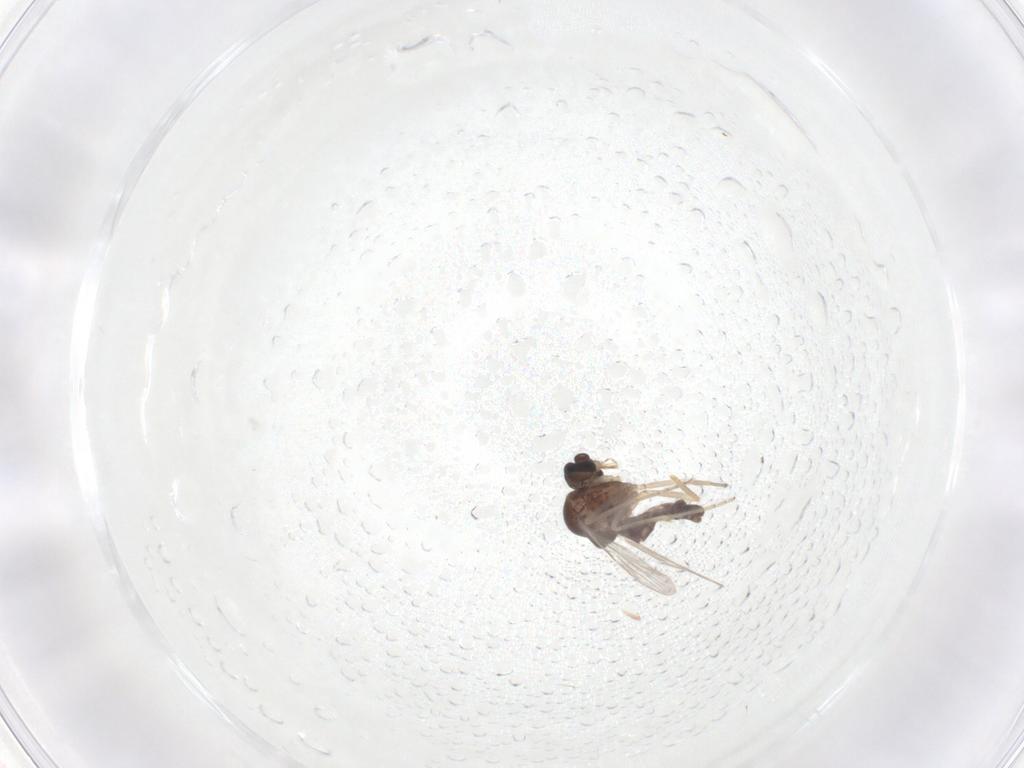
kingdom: Animalia
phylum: Arthropoda
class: Insecta
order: Diptera
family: Ceratopogonidae
